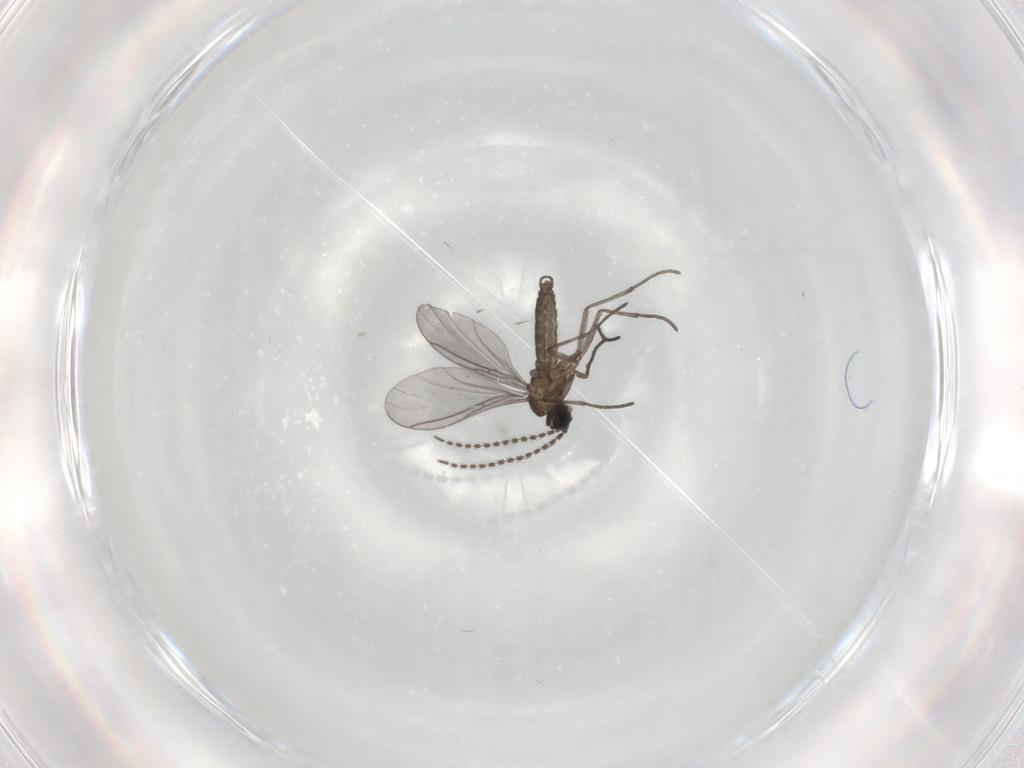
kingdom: Animalia
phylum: Arthropoda
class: Insecta
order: Diptera
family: Sciaridae
